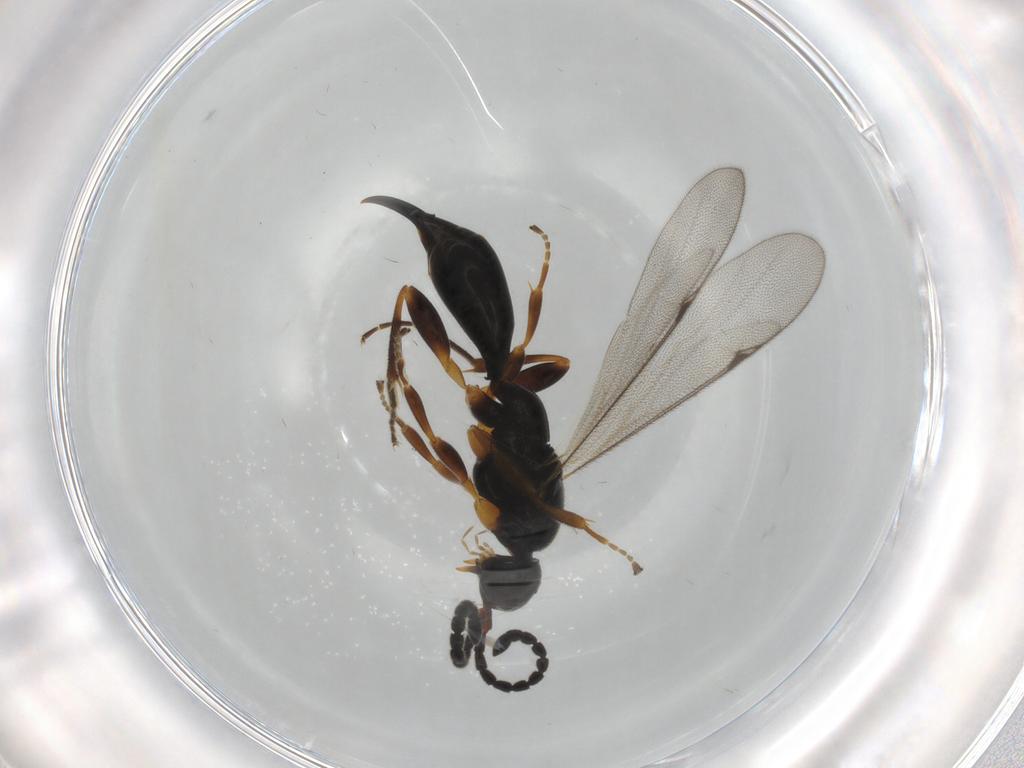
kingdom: Animalia
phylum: Arthropoda
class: Insecta
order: Hymenoptera
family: Proctotrupidae
